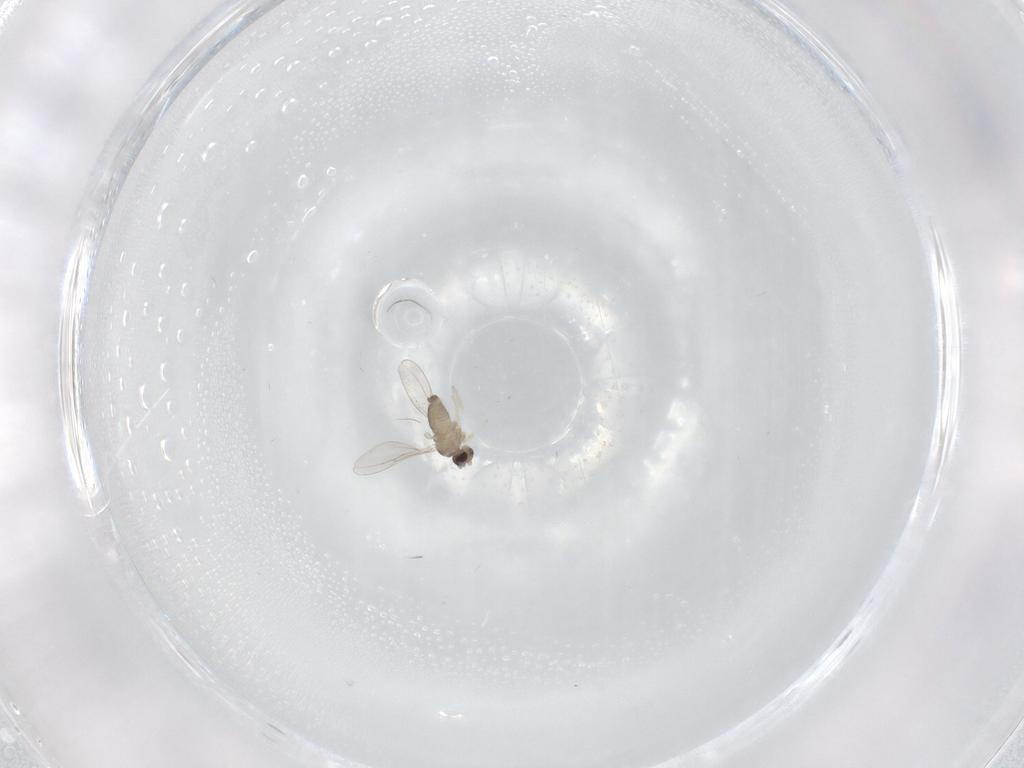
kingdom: Animalia
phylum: Arthropoda
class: Insecta
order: Diptera
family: Cecidomyiidae
